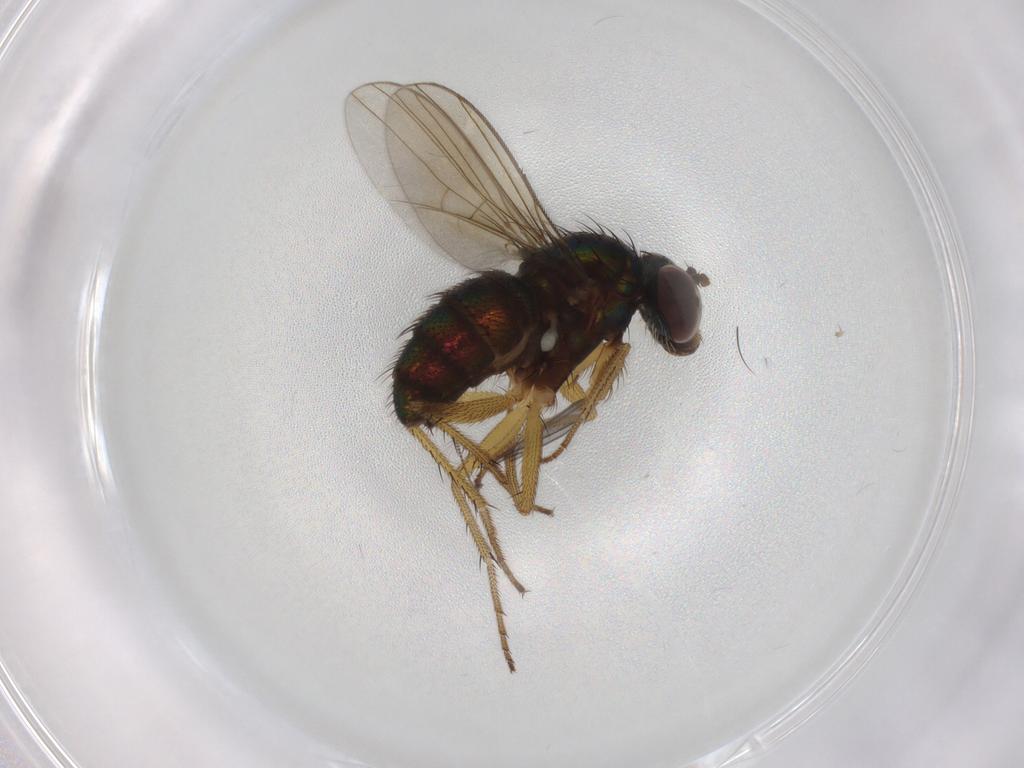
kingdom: Animalia
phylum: Arthropoda
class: Insecta
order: Diptera
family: Dolichopodidae
